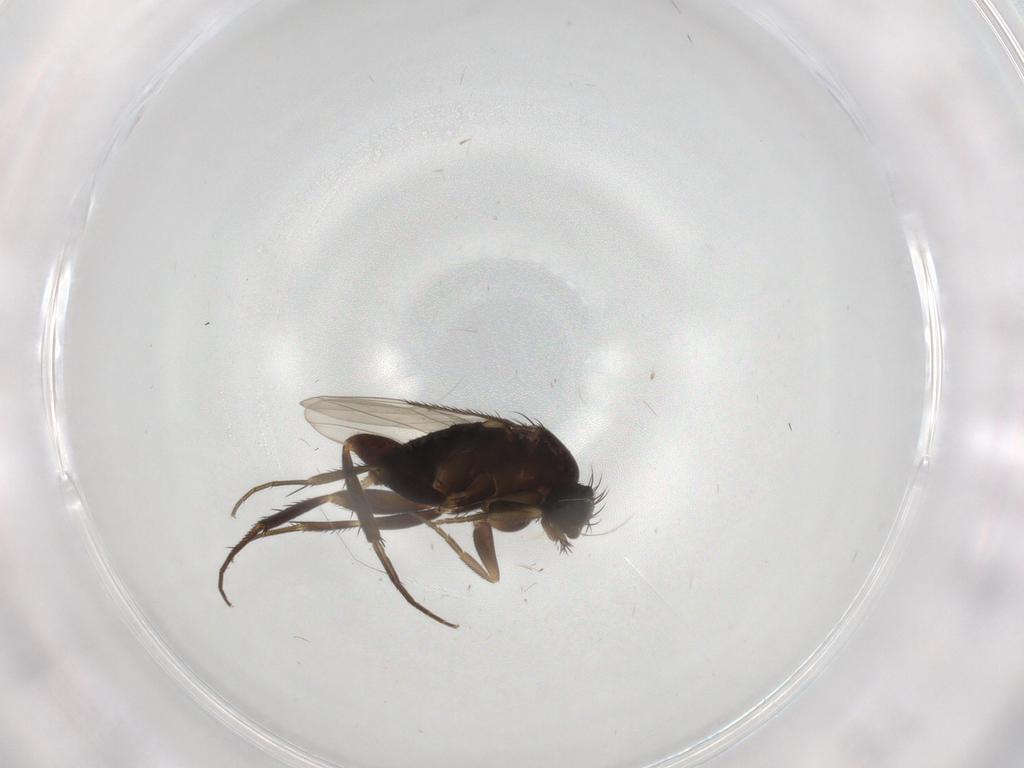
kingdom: Animalia
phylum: Arthropoda
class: Insecta
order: Diptera
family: Phoridae
